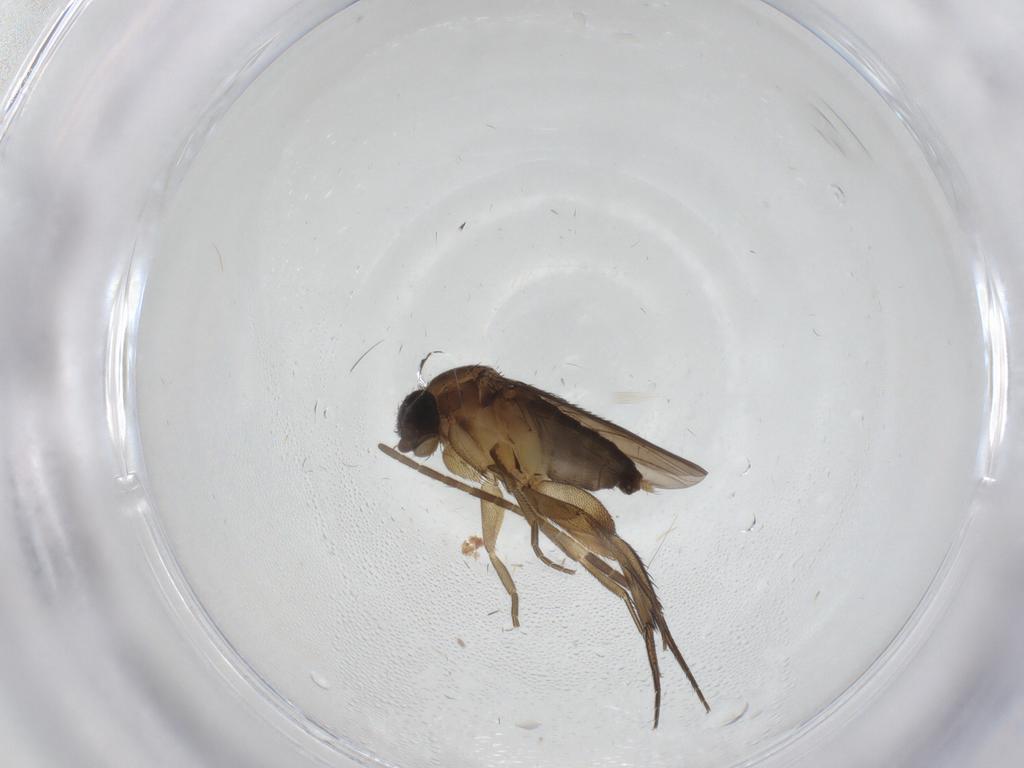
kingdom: Animalia
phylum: Arthropoda
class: Insecta
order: Diptera
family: Phoridae
